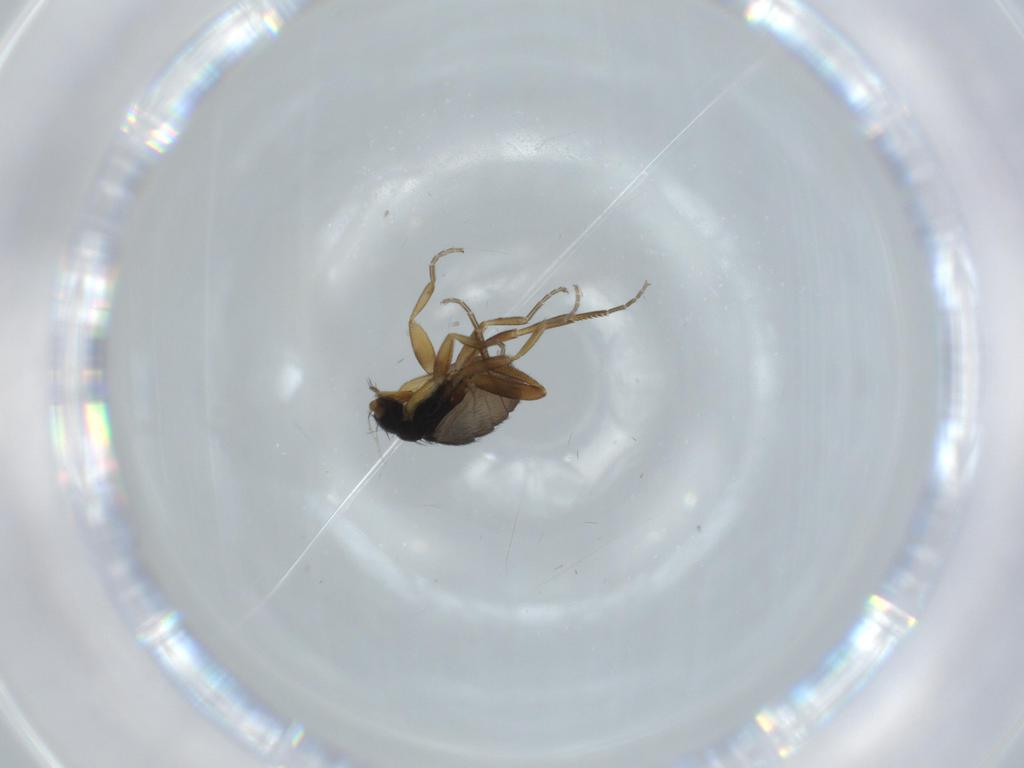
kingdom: Animalia
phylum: Arthropoda
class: Insecta
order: Diptera
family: Phoridae
